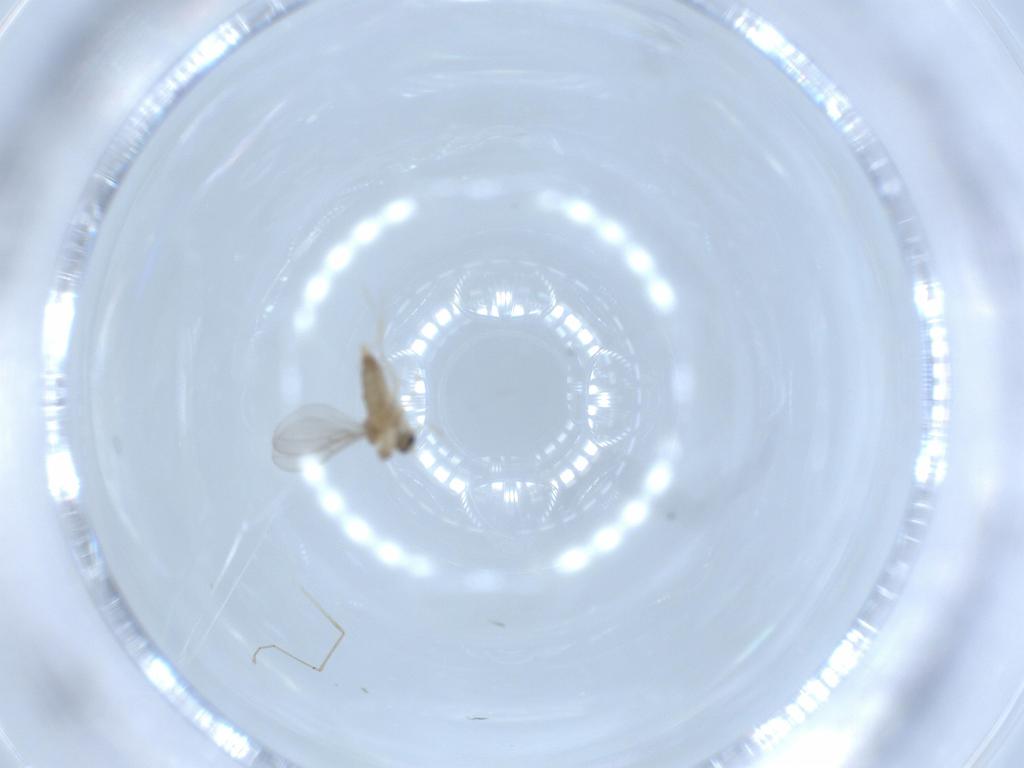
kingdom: Animalia
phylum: Arthropoda
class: Insecta
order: Diptera
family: Cecidomyiidae
